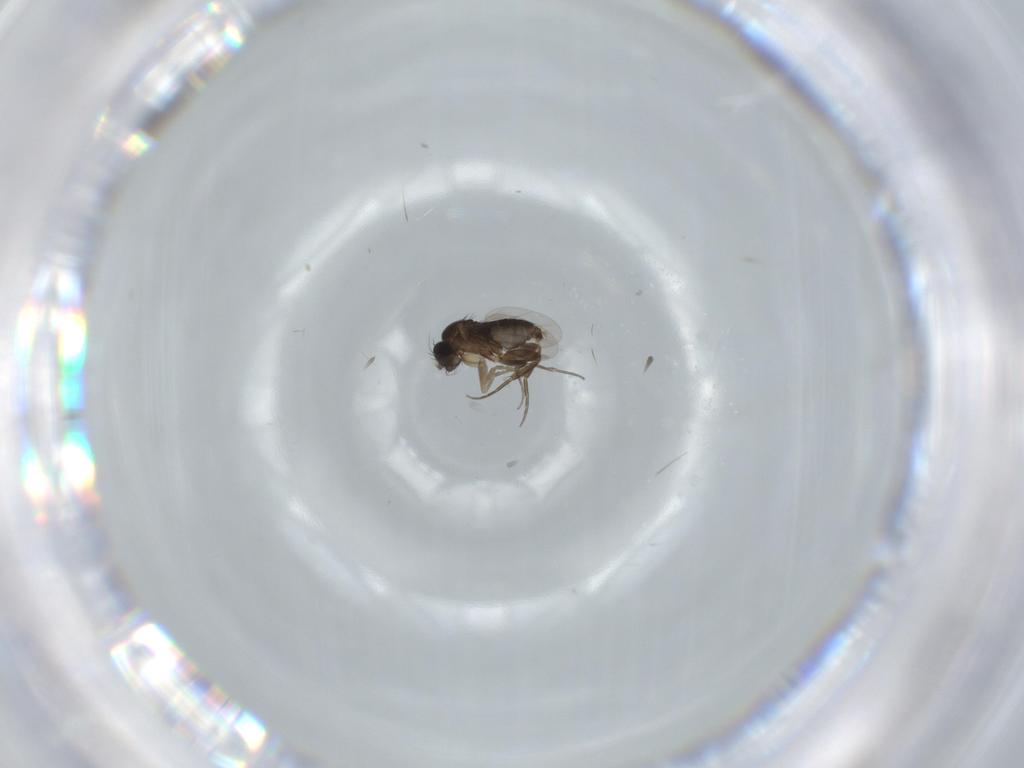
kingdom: Animalia
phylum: Arthropoda
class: Insecta
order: Diptera
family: Phoridae
